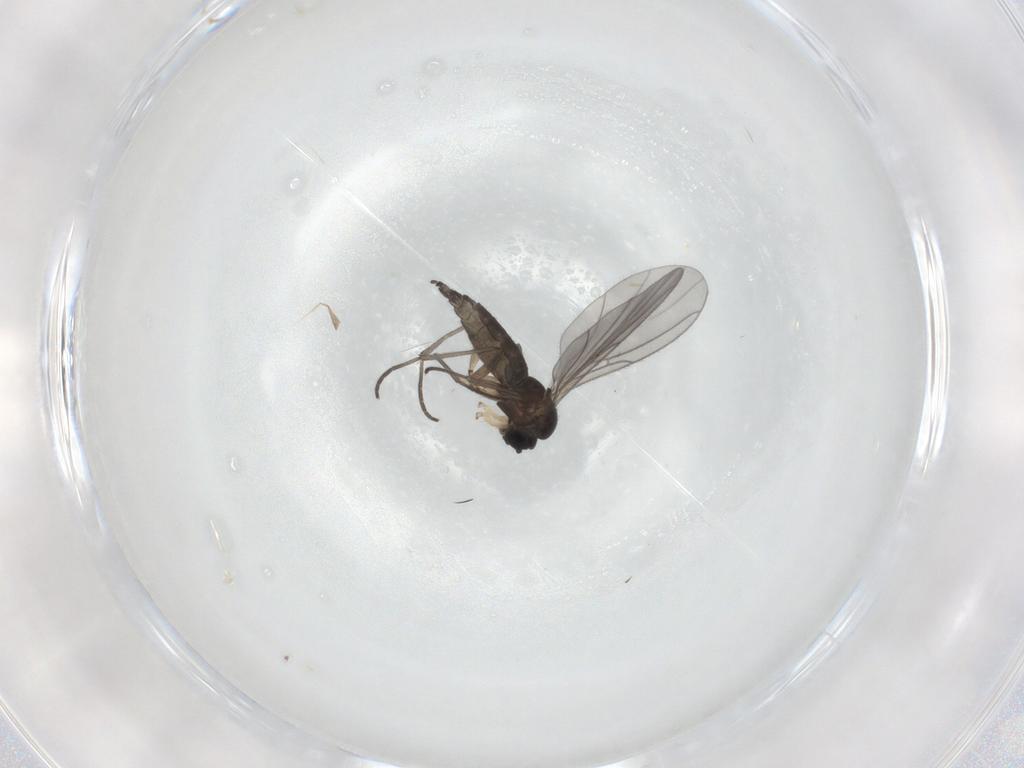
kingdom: Animalia
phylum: Arthropoda
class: Insecta
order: Diptera
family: Sciaridae
